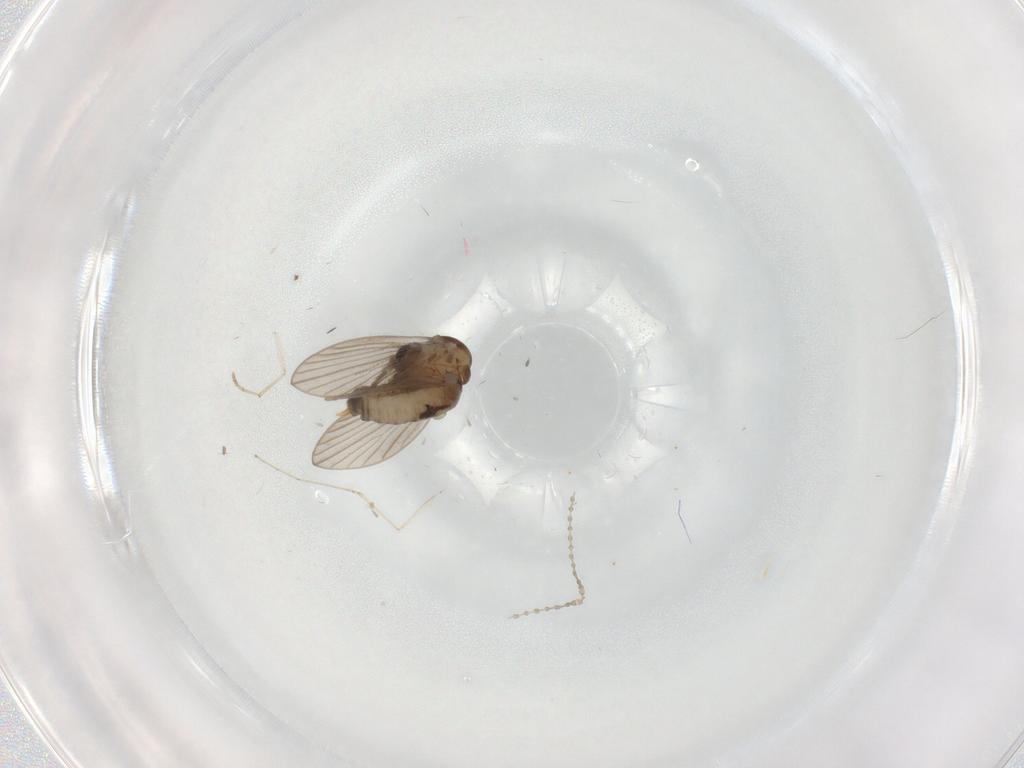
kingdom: Animalia
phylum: Arthropoda
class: Insecta
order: Diptera
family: Psychodidae
